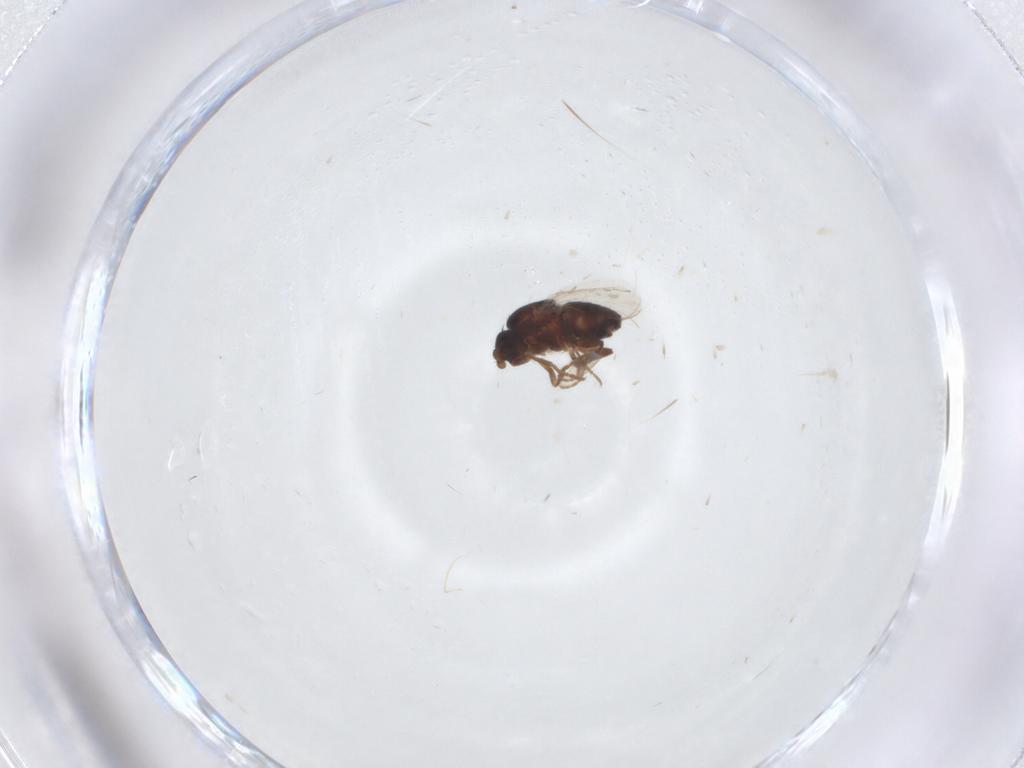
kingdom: Animalia
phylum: Arthropoda
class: Insecta
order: Diptera
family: Sphaeroceridae
